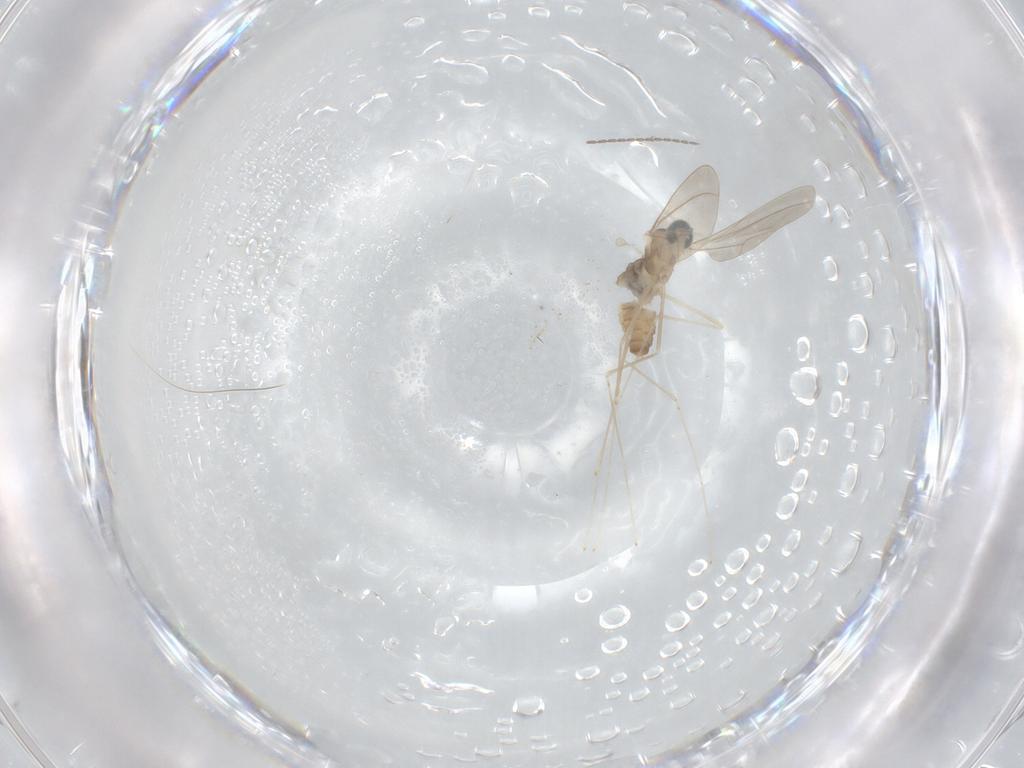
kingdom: Animalia
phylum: Arthropoda
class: Insecta
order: Diptera
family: Cecidomyiidae
